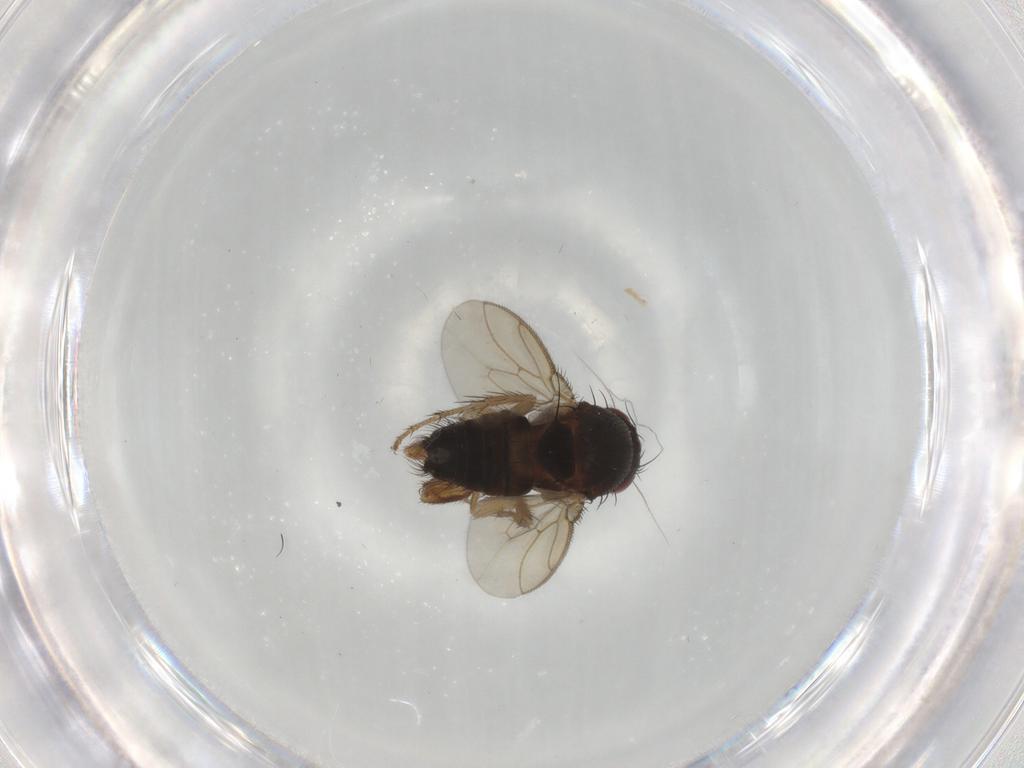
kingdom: Animalia
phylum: Arthropoda
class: Insecta
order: Diptera
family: Sphaeroceridae
